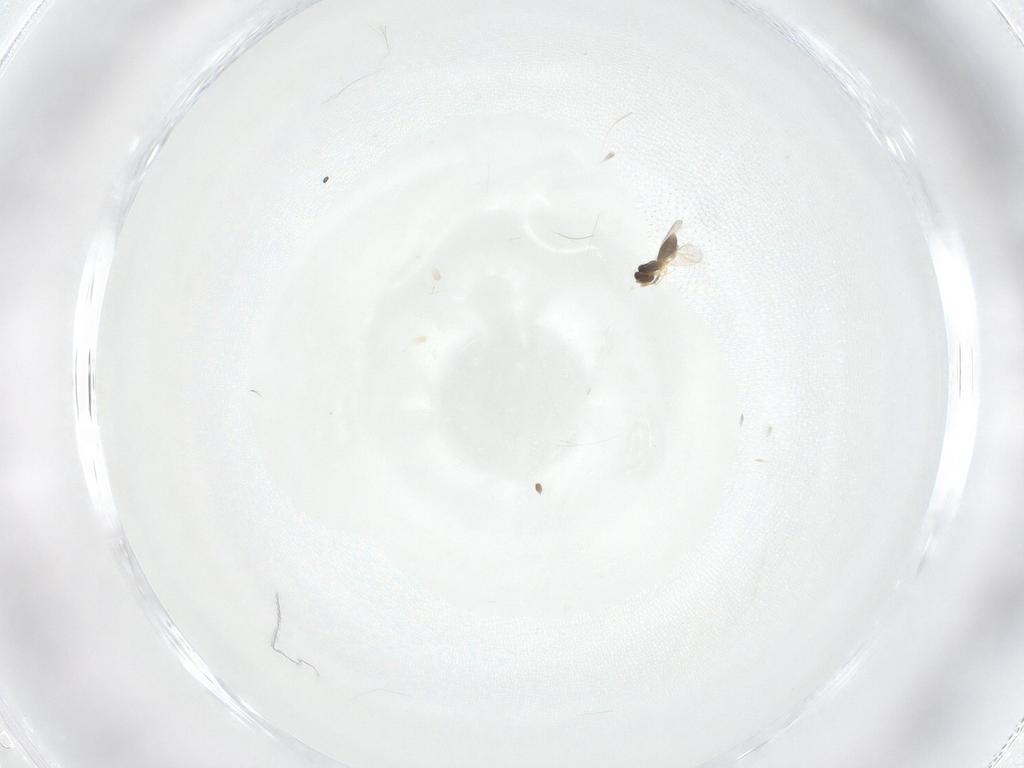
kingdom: Animalia
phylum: Arthropoda
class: Insecta
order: Hymenoptera
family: Platygastridae
